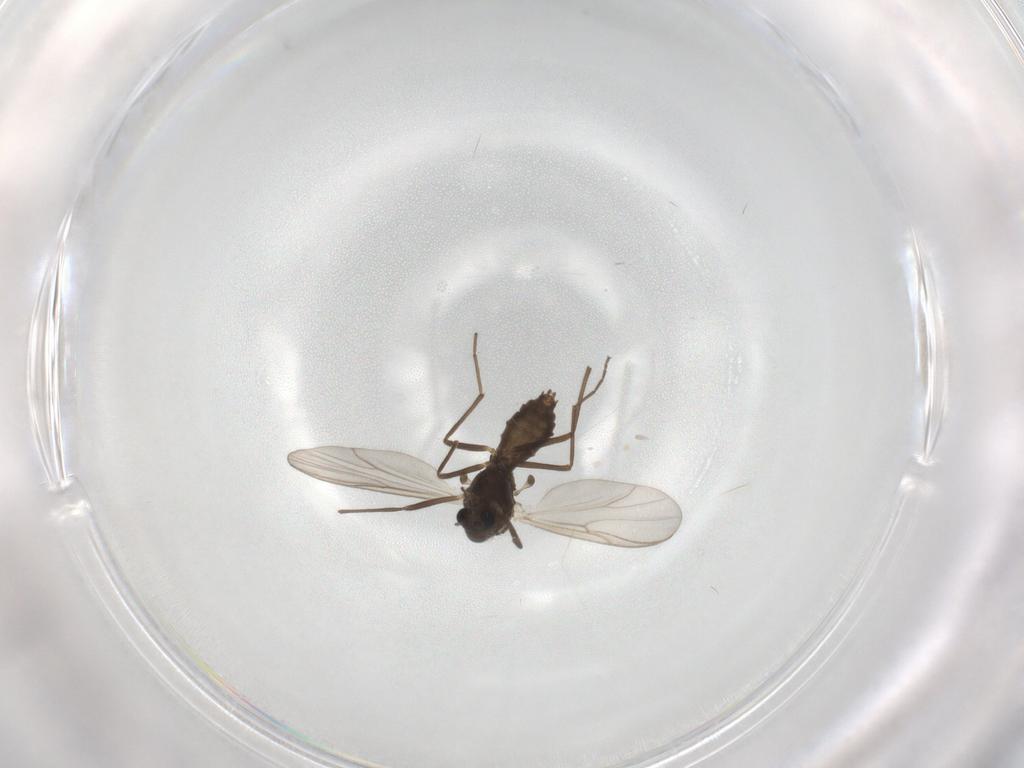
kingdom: Animalia
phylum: Arthropoda
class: Insecta
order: Diptera
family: Chironomidae
